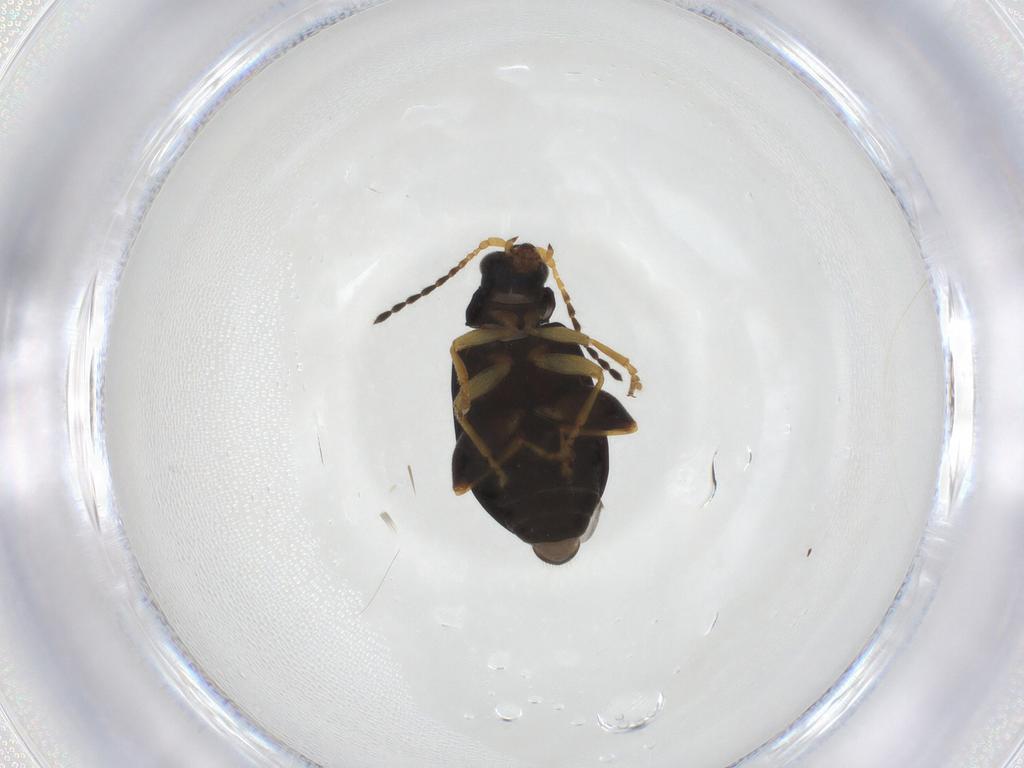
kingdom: Animalia
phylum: Arthropoda
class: Insecta
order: Coleoptera
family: Chrysomelidae
